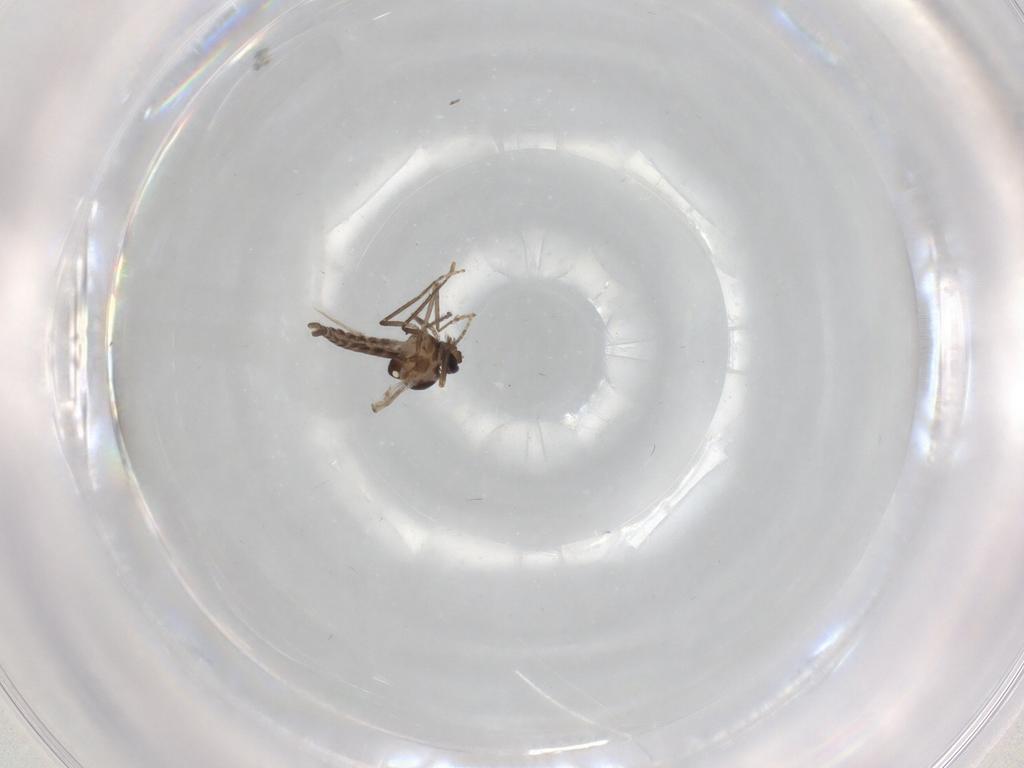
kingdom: Animalia
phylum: Arthropoda
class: Insecta
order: Diptera
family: Ceratopogonidae
